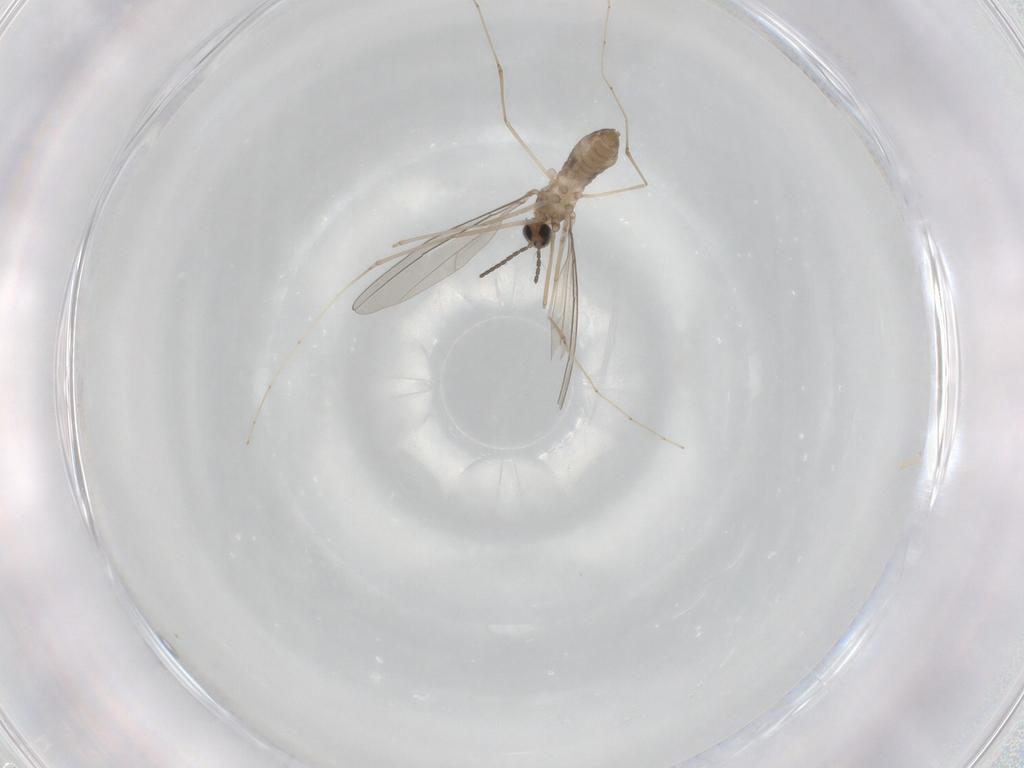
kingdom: Animalia
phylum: Arthropoda
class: Insecta
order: Diptera
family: Cecidomyiidae
